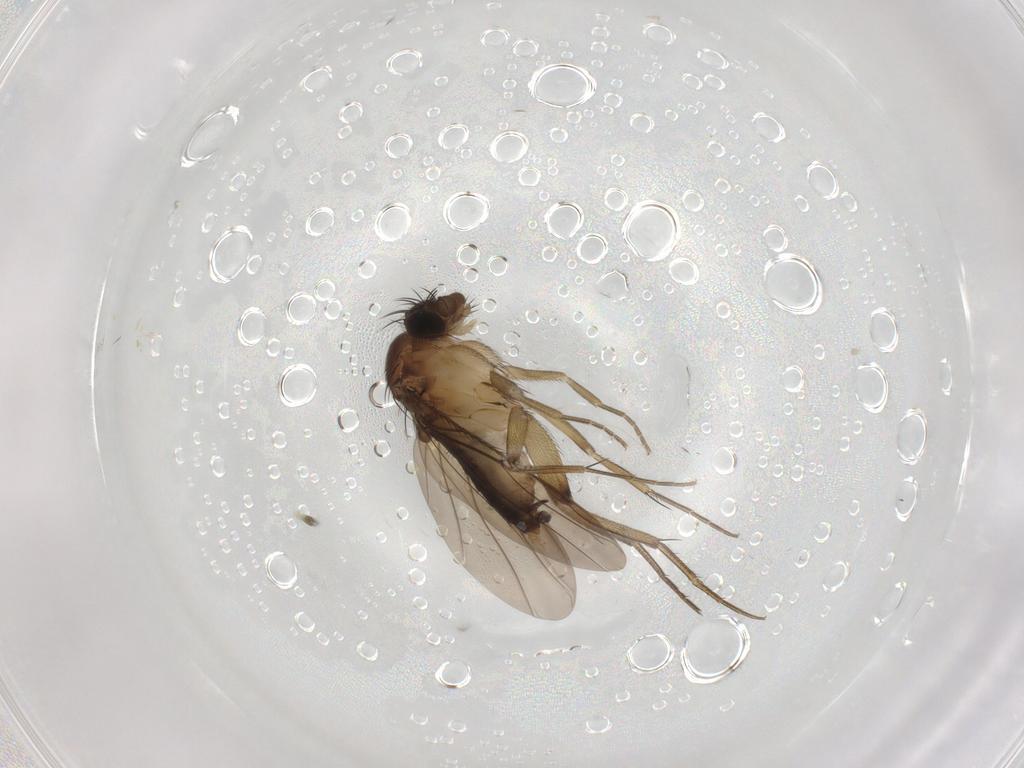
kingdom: Animalia
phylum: Arthropoda
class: Insecta
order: Diptera
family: Phoridae
